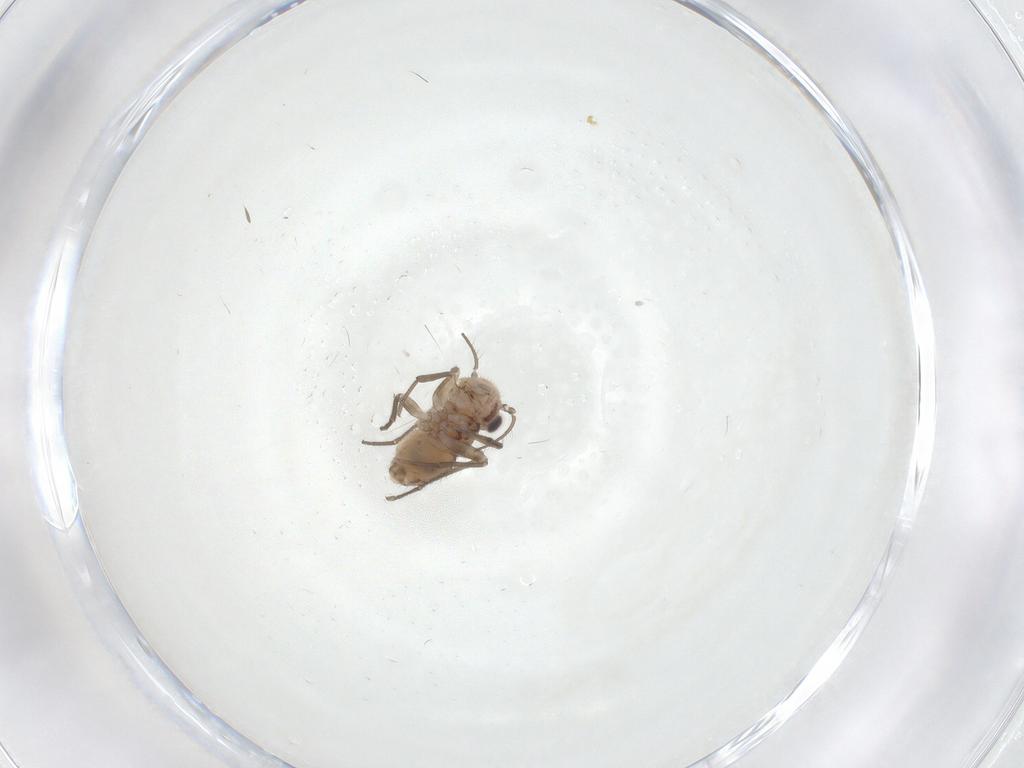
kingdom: Animalia
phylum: Arthropoda
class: Insecta
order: Psocodea
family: Mesopsocidae
